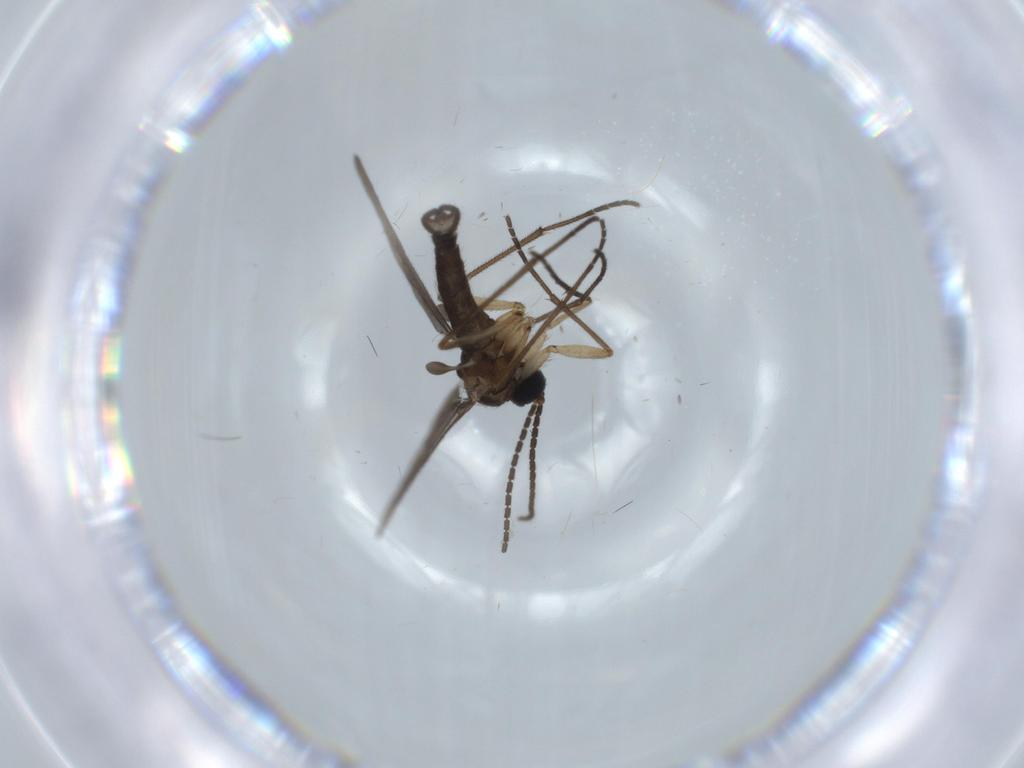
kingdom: Animalia
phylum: Arthropoda
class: Insecta
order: Diptera
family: Sciaridae
